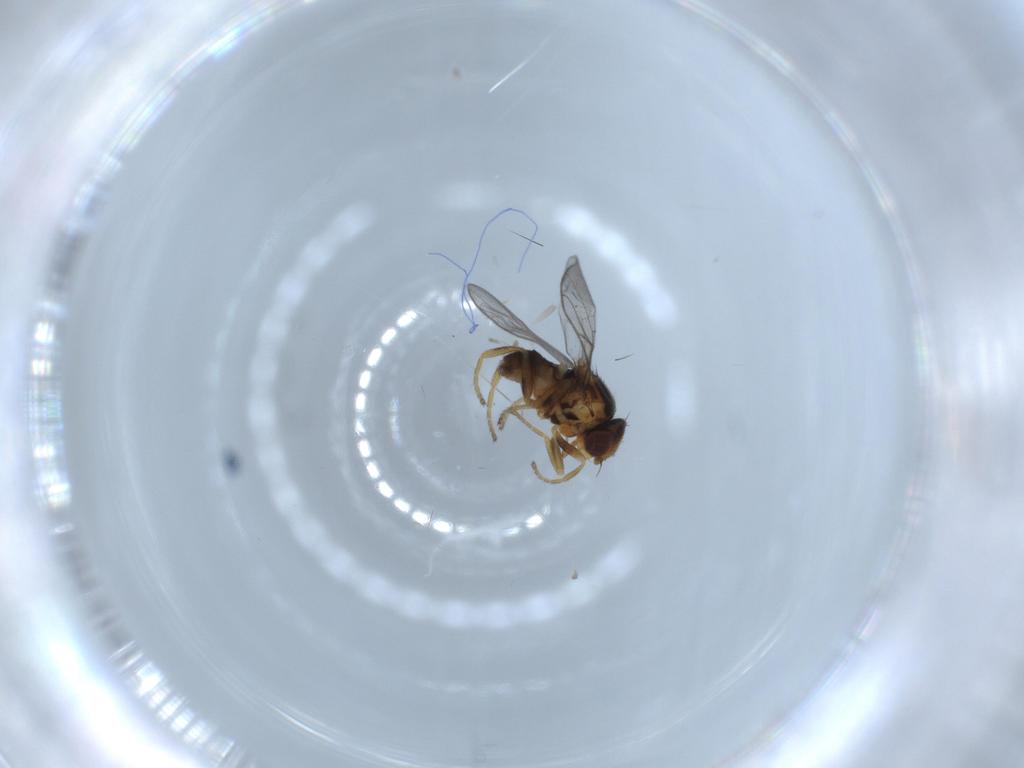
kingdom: Animalia
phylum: Arthropoda
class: Insecta
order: Diptera
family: Chloropidae
